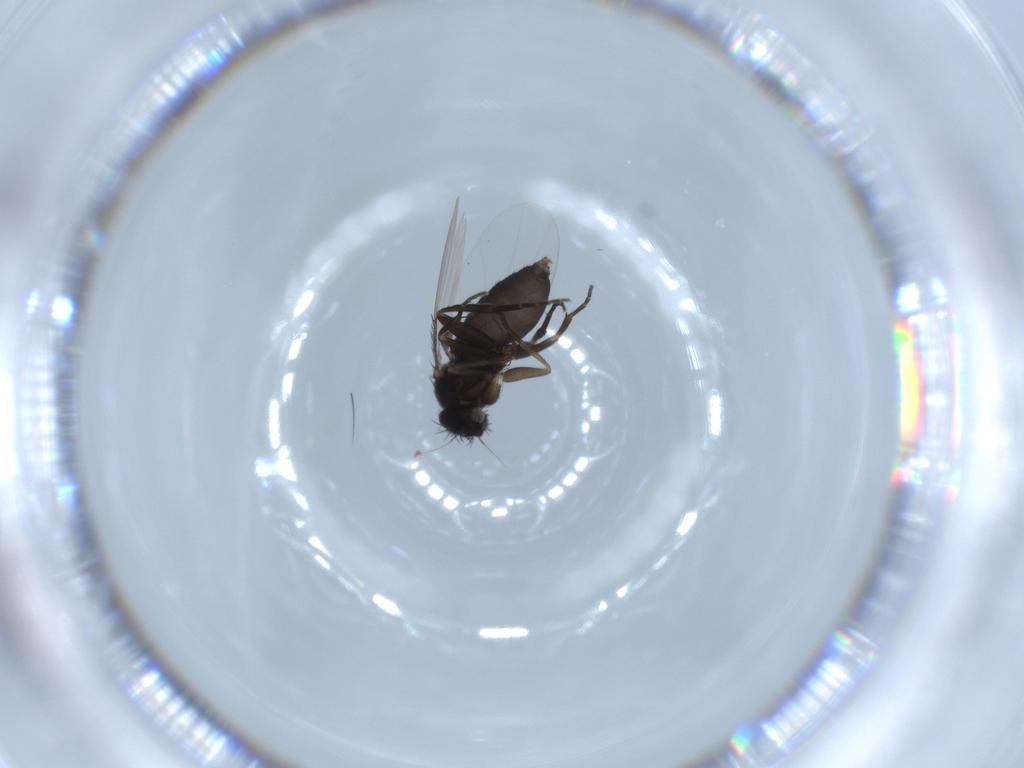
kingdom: Animalia
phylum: Arthropoda
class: Insecta
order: Diptera
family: Phoridae
